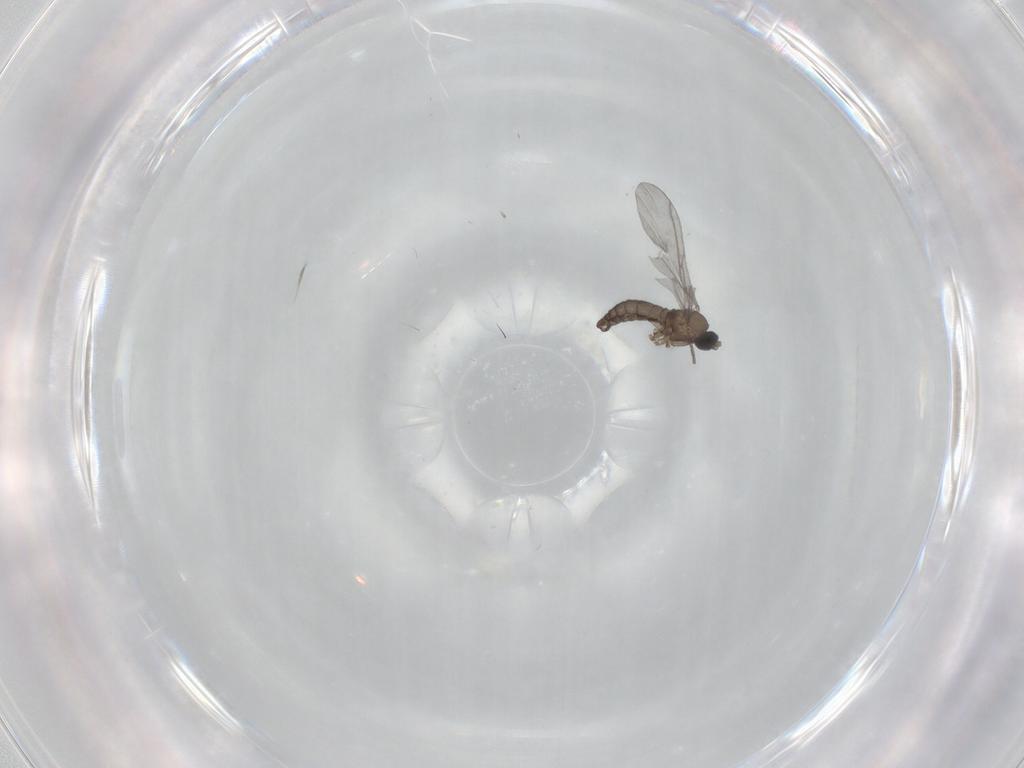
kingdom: Animalia
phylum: Arthropoda
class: Insecta
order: Diptera
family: Sciaridae
